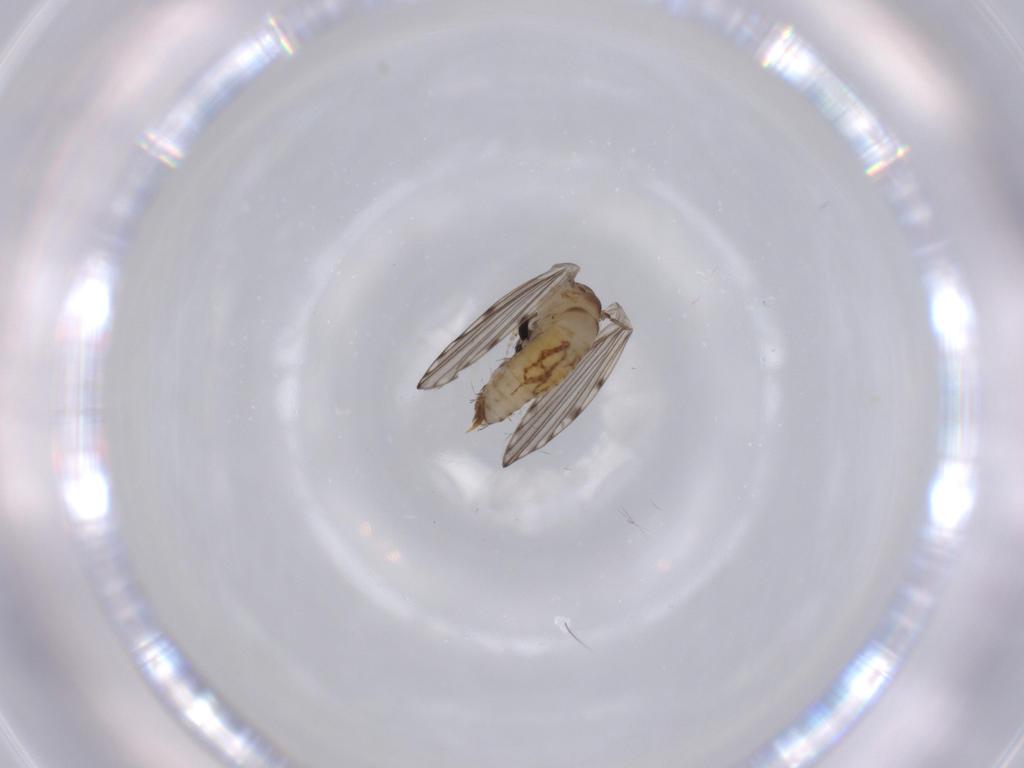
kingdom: Animalia
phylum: Arthropoda
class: Insecta
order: Diptera
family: Psychodidae
